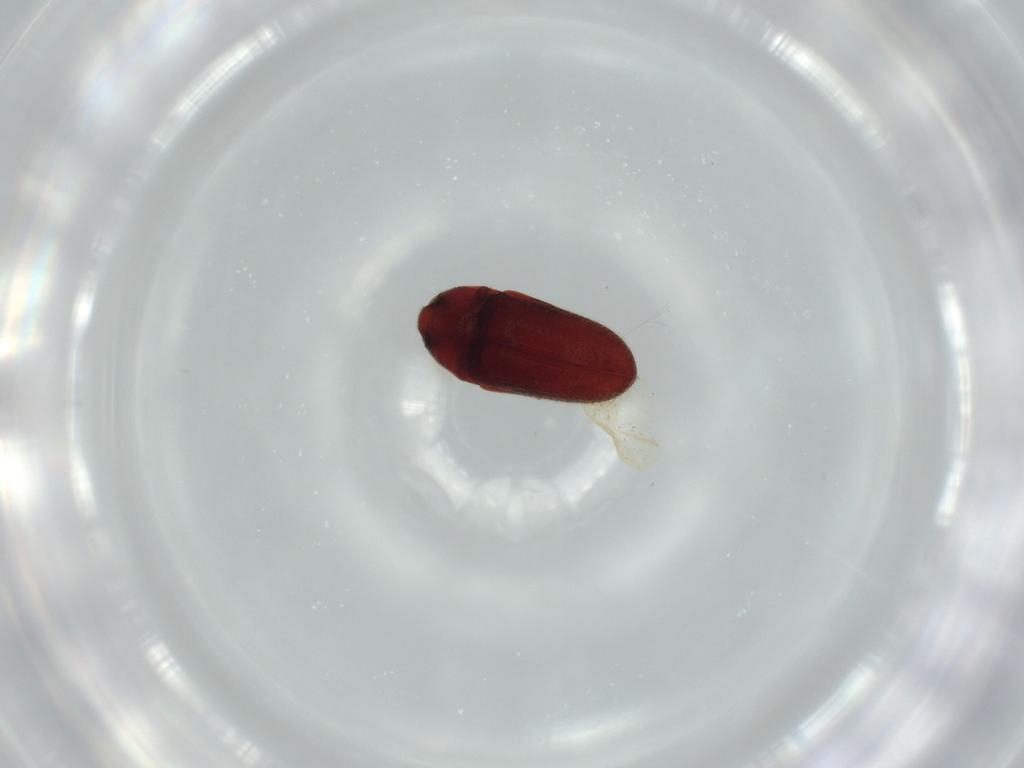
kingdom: Animalia
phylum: Arthropoda
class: Insecta
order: Coleoptera
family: Throscidae
